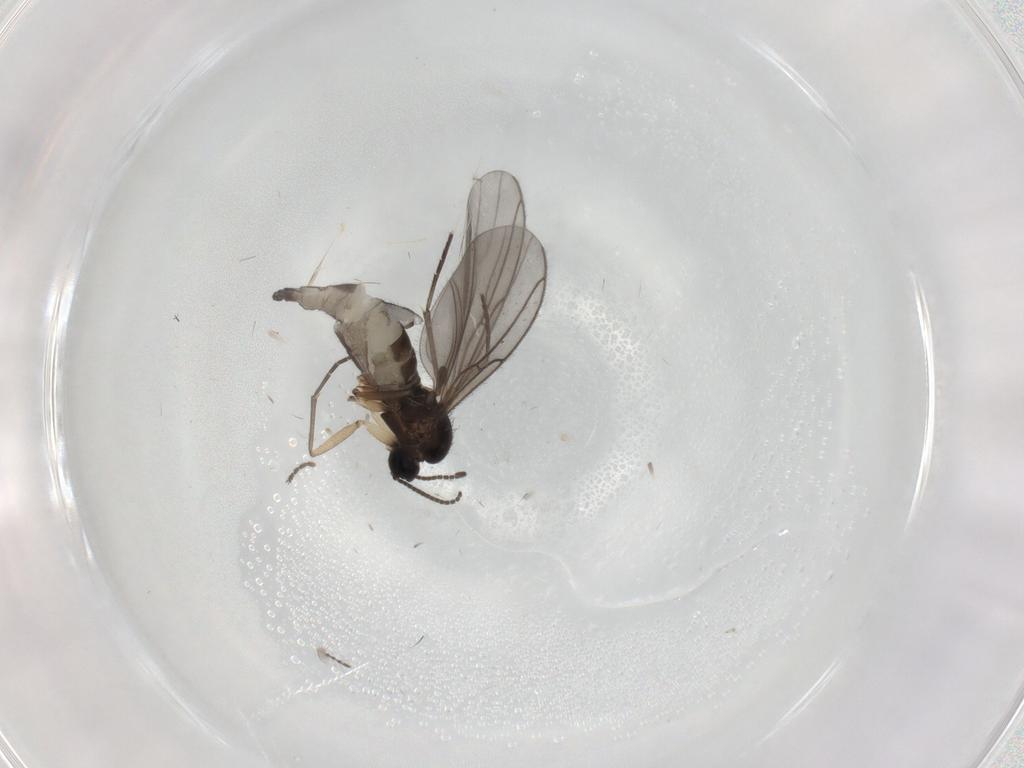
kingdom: Animalia
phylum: Arthropoda
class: Insecta
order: Diptera
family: Sciaridae
